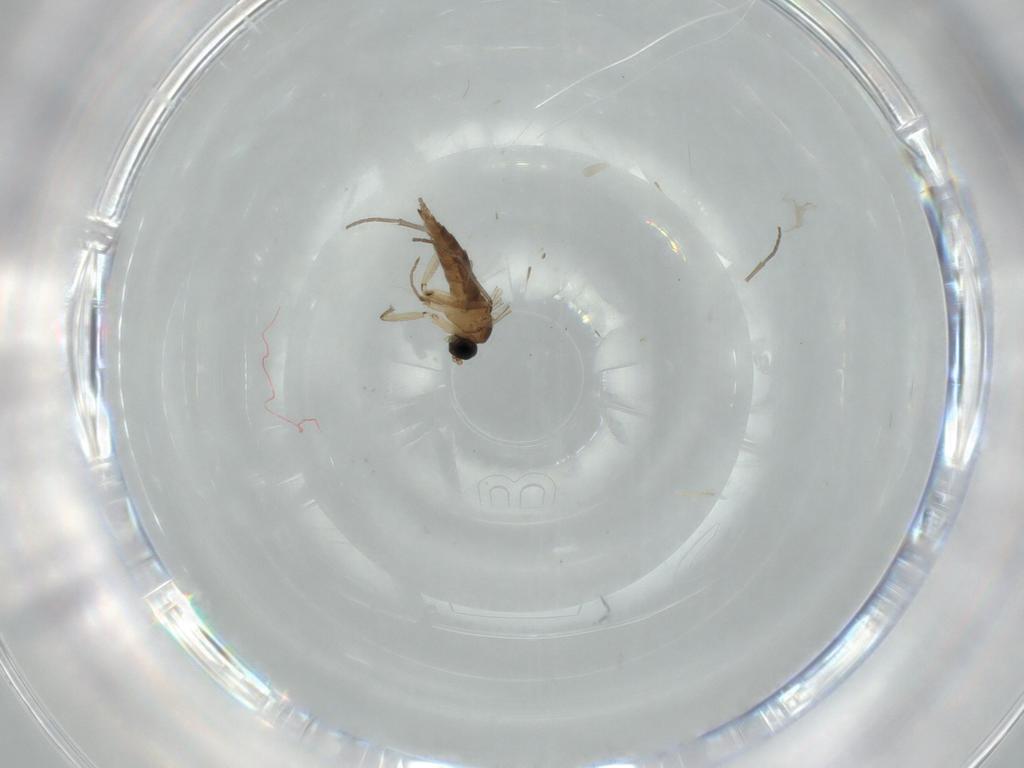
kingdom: Animalia
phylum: Arthropoda
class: Insecta
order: Diptera
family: Sciaridae
